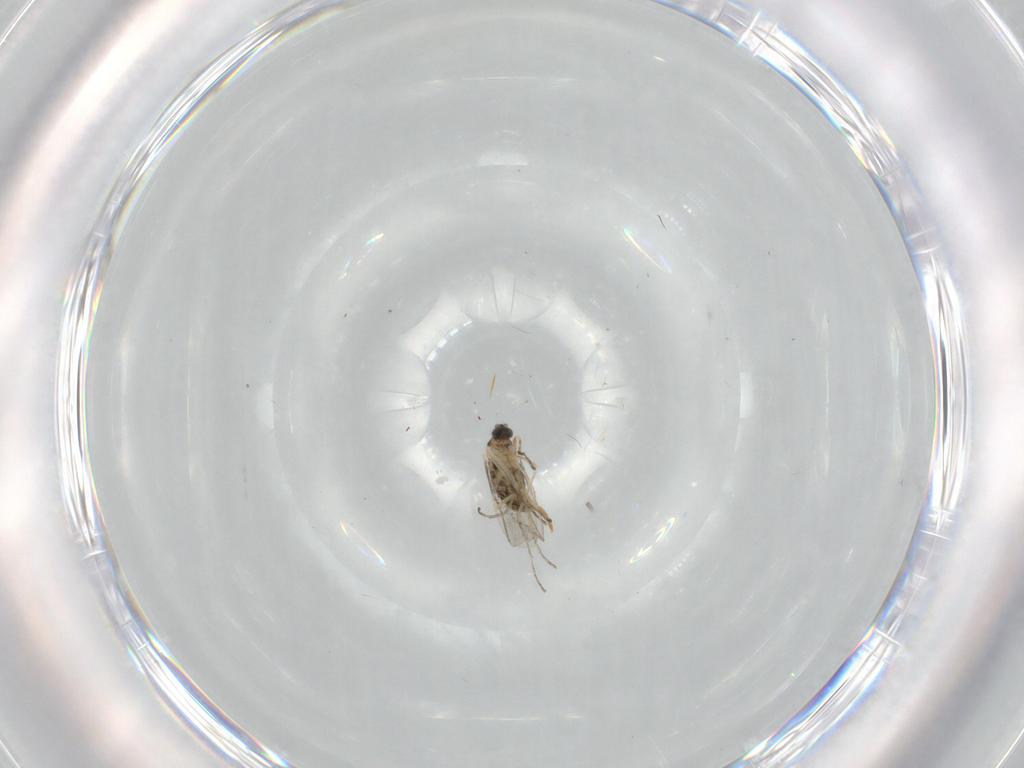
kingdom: Animalia
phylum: Arthropoda
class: Insecta
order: Diptera
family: Cecidomyiidae
